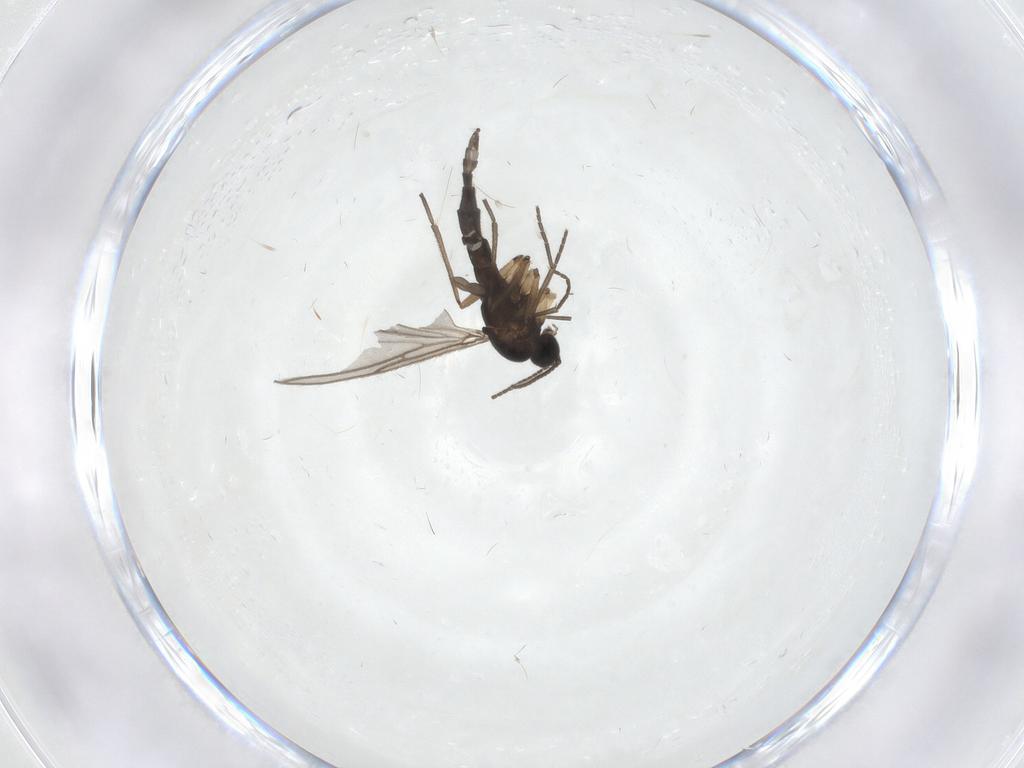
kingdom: Animalia
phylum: Arthropoda
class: Insecta
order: Diptera
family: Sciaridae
